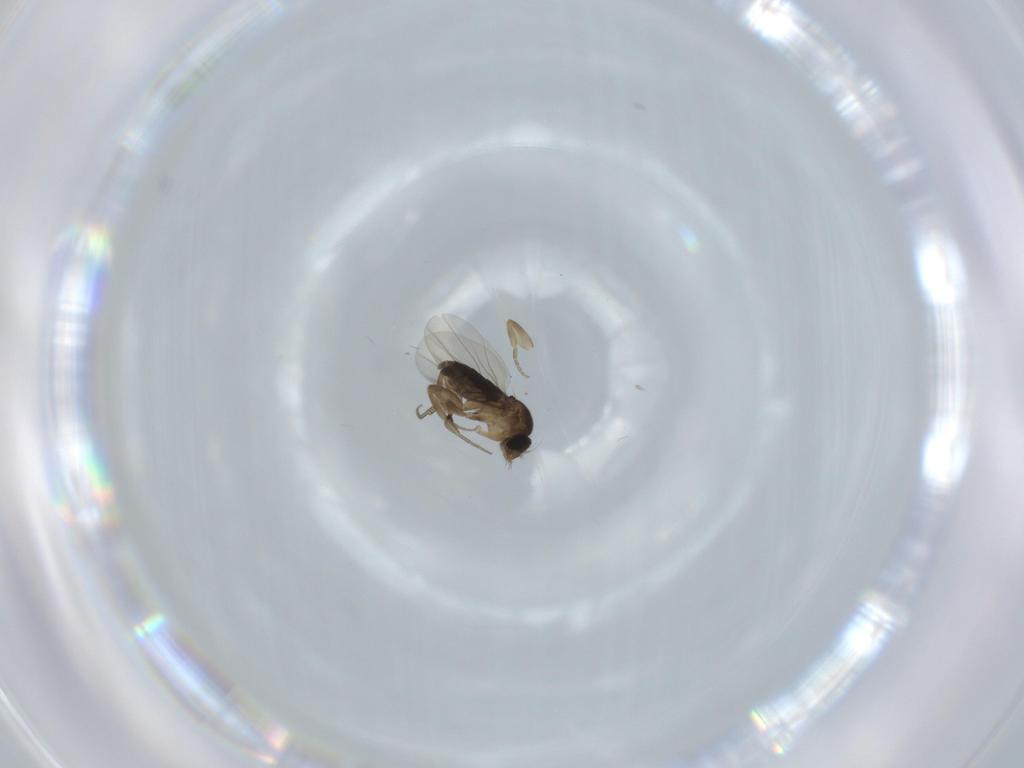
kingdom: Animalia
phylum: Arthropoda
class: Insecta
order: Diptera
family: Phoridae
